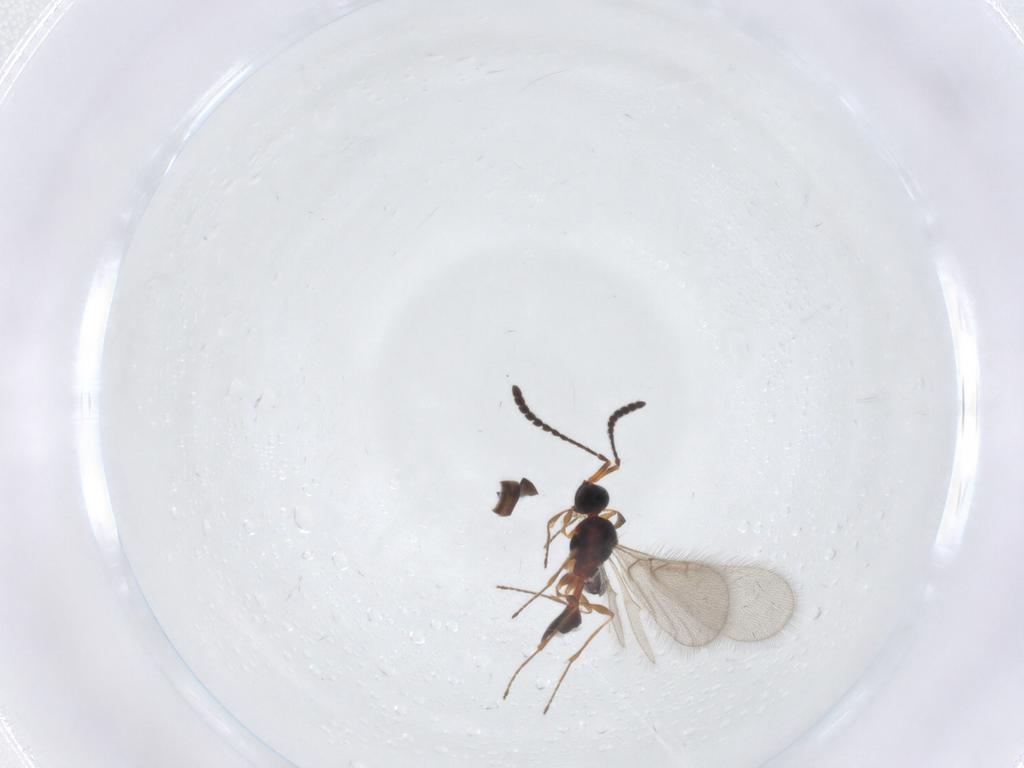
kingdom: Animalia
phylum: Arthropoda
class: Insecta
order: Hymenoptera
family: Diapriidae
